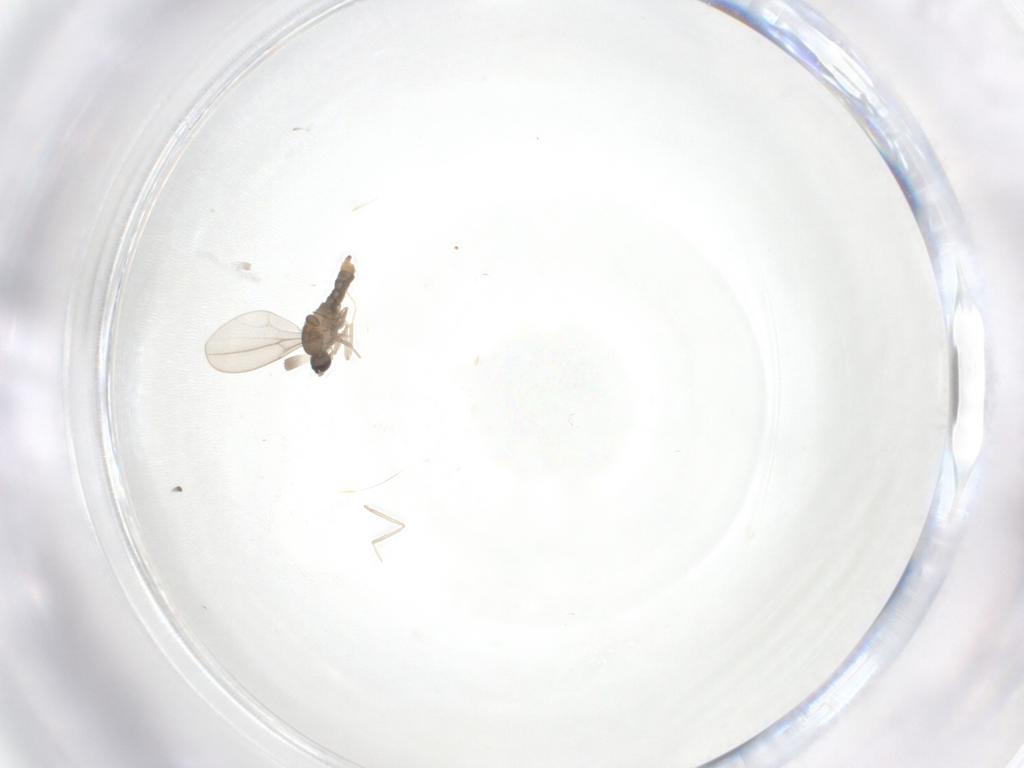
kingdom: Animalia
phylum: Arthropoda
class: Insecta
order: Diptera
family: Cecidomyiidae
